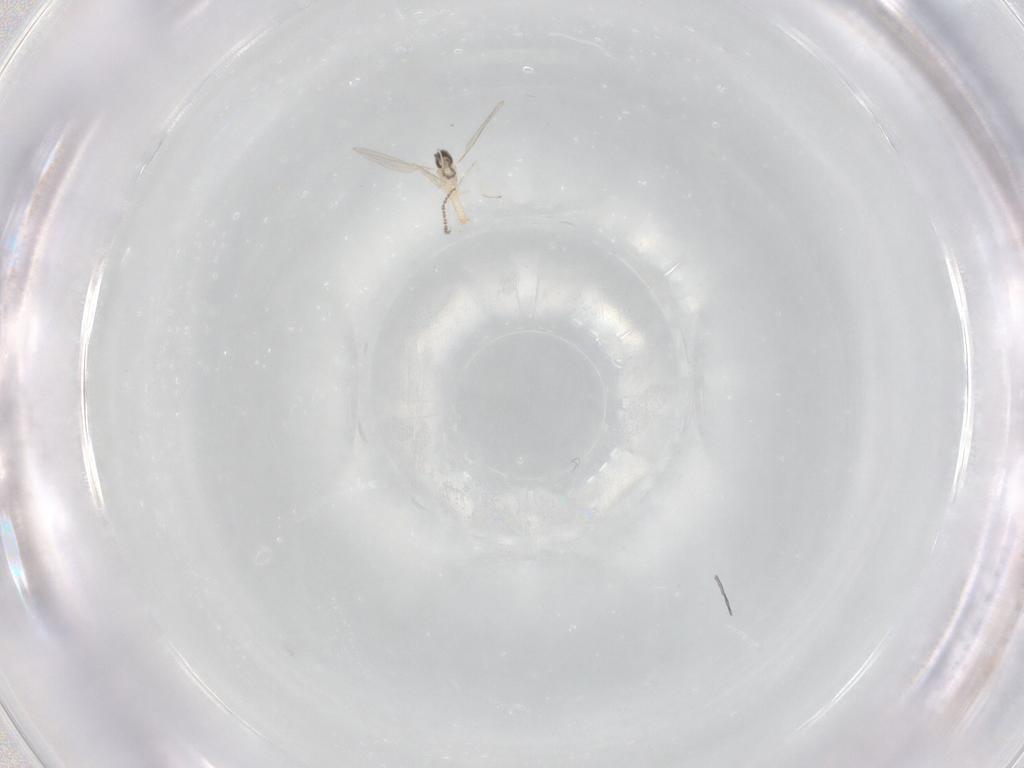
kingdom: Animalia
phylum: Arthropoda
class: Insecta
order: Diptera
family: Cecidomyiidae
